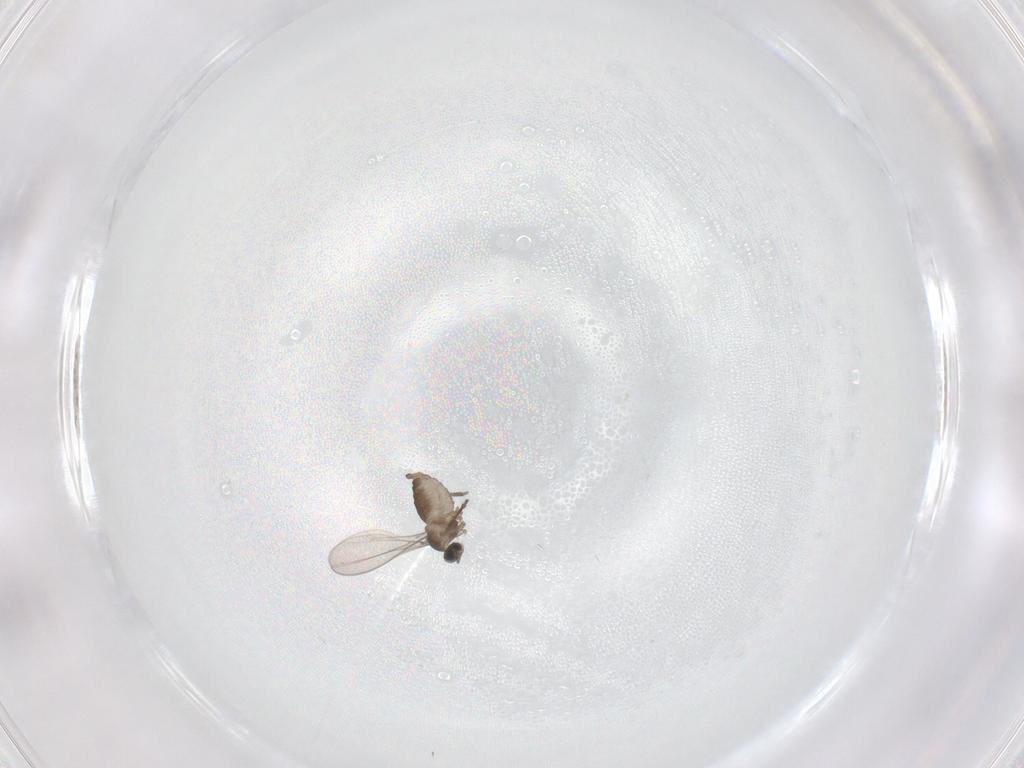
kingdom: Animalia
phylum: Arthropoda
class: Insecta
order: Diptera
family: Cecidomyiidae
